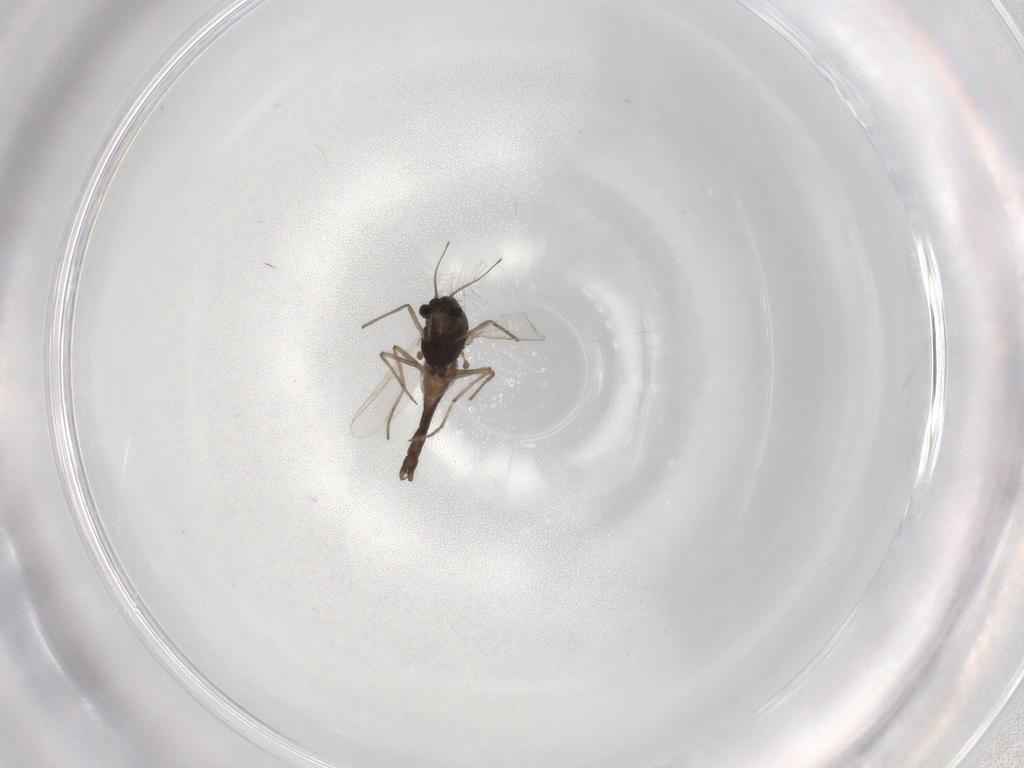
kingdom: Animalia
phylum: Arthropoda
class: Insecta
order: Diptera
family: Chironomidae
